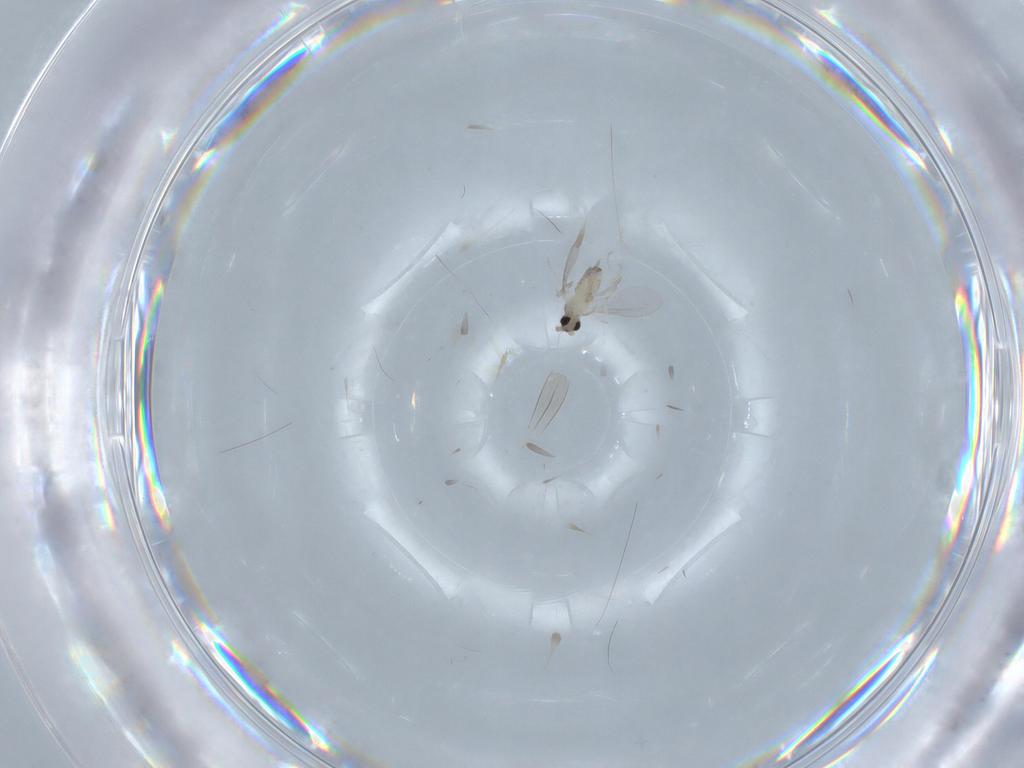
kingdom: Animalia
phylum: Arthropoda
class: Insecta
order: Diptera
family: Cecidomyiidae
